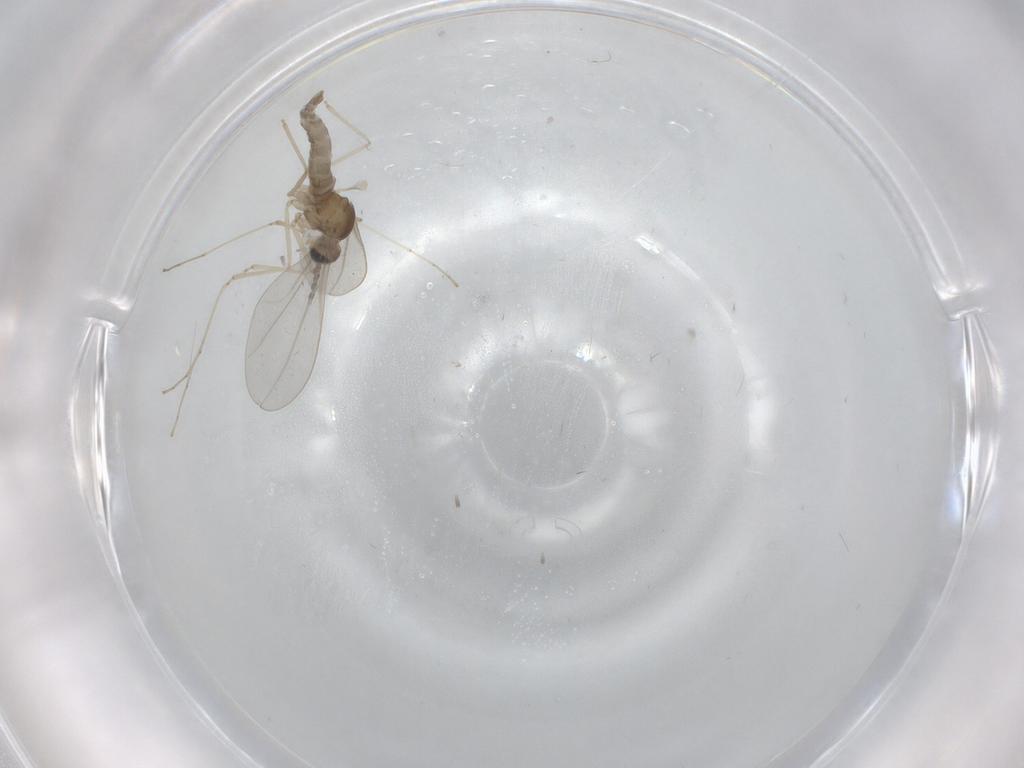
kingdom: Animalia
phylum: Arthropoda
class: Insecta
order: Diptera
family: Cecidomyiidae
